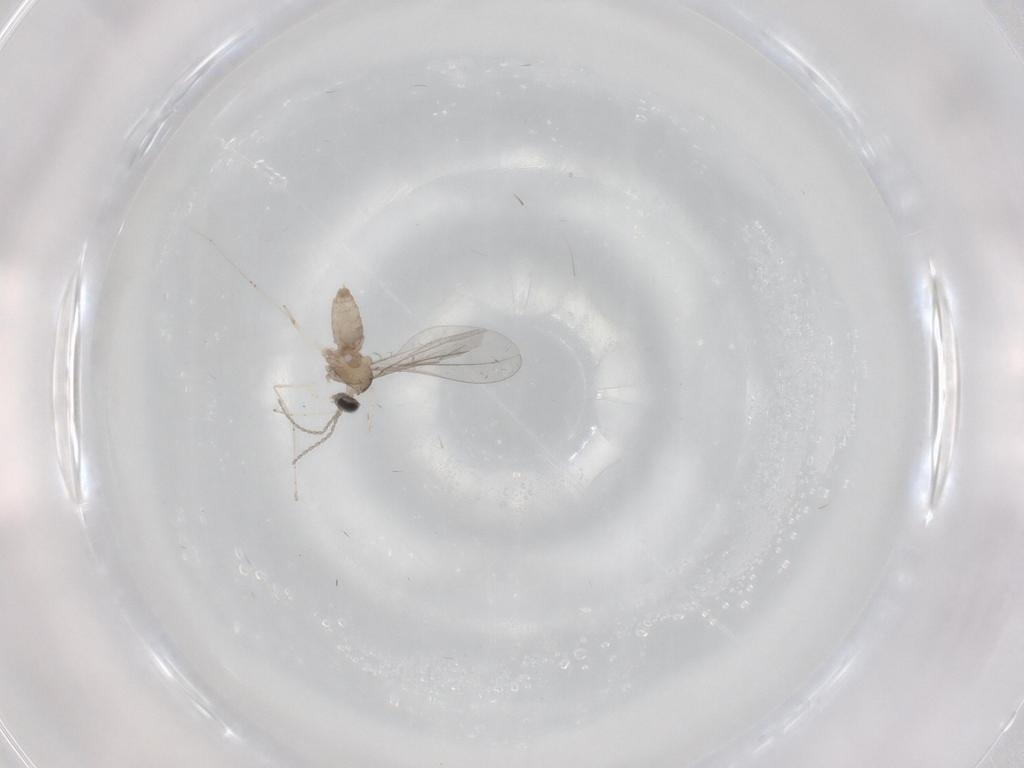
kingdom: Animalia
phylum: Arthropoda
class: Insecta
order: Diptera
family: Cecidomyiidae
